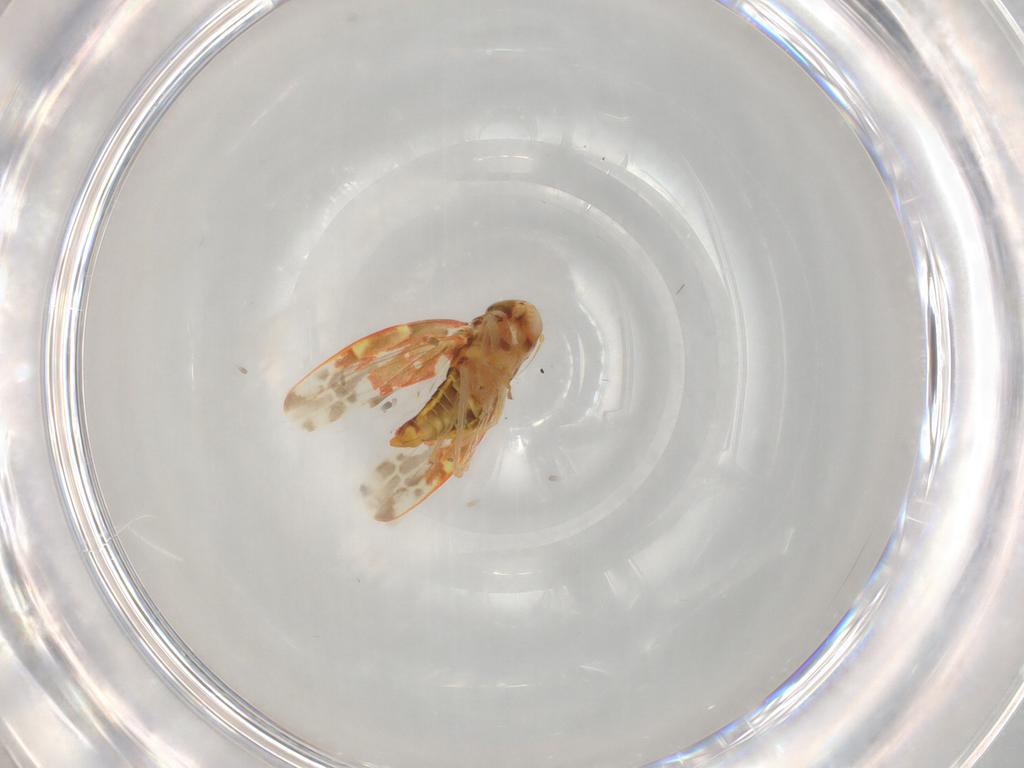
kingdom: Animalia
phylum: Arthropoda
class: Insecta
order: Hemiptera
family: Cicadellidae
